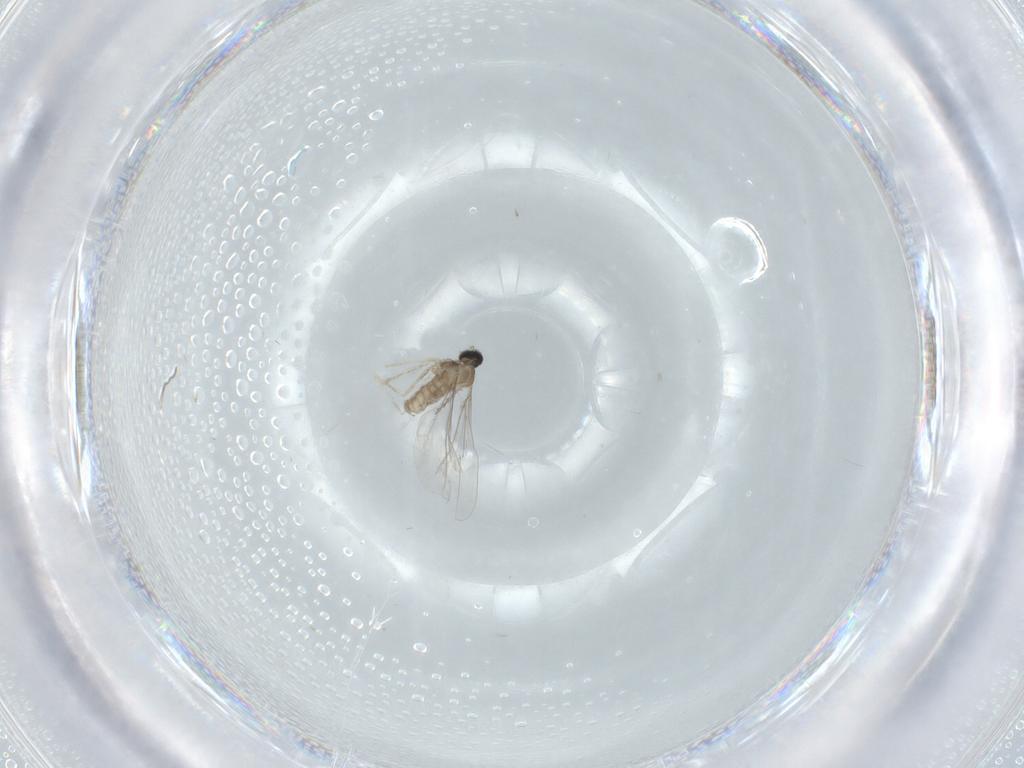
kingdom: Animalia
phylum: Arthropoda
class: Insecta
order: Diptera
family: Cecidomyiidae
